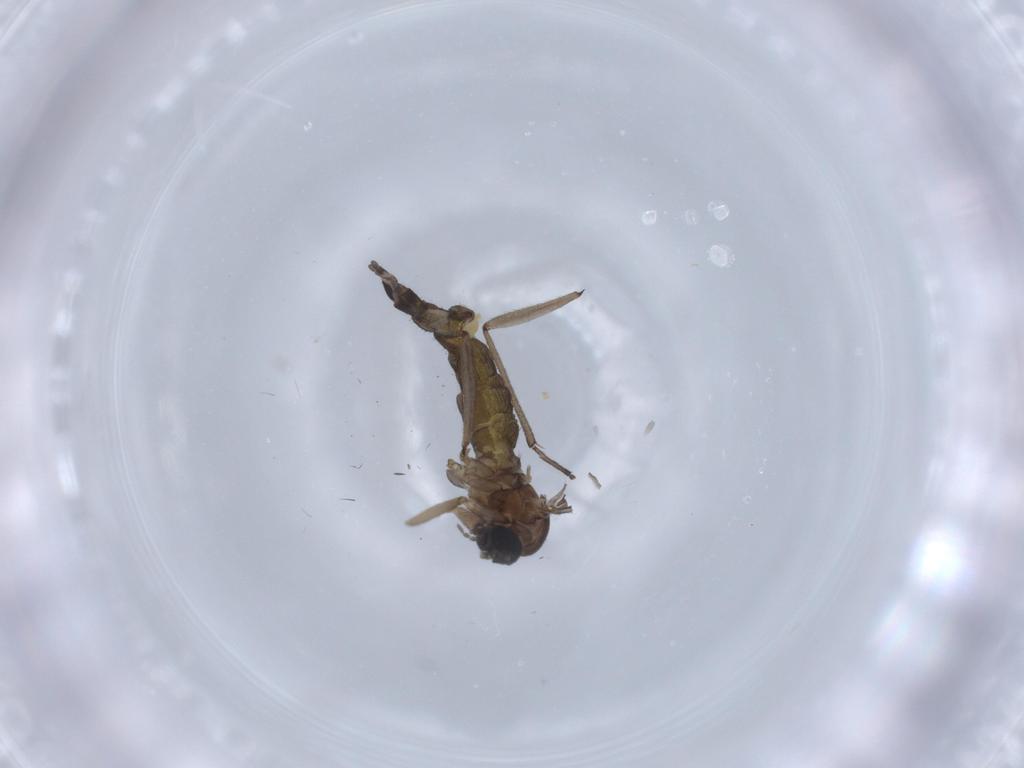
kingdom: Animalia
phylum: Arthropoda
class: Insecta
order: Diptera
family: Sciaridae
